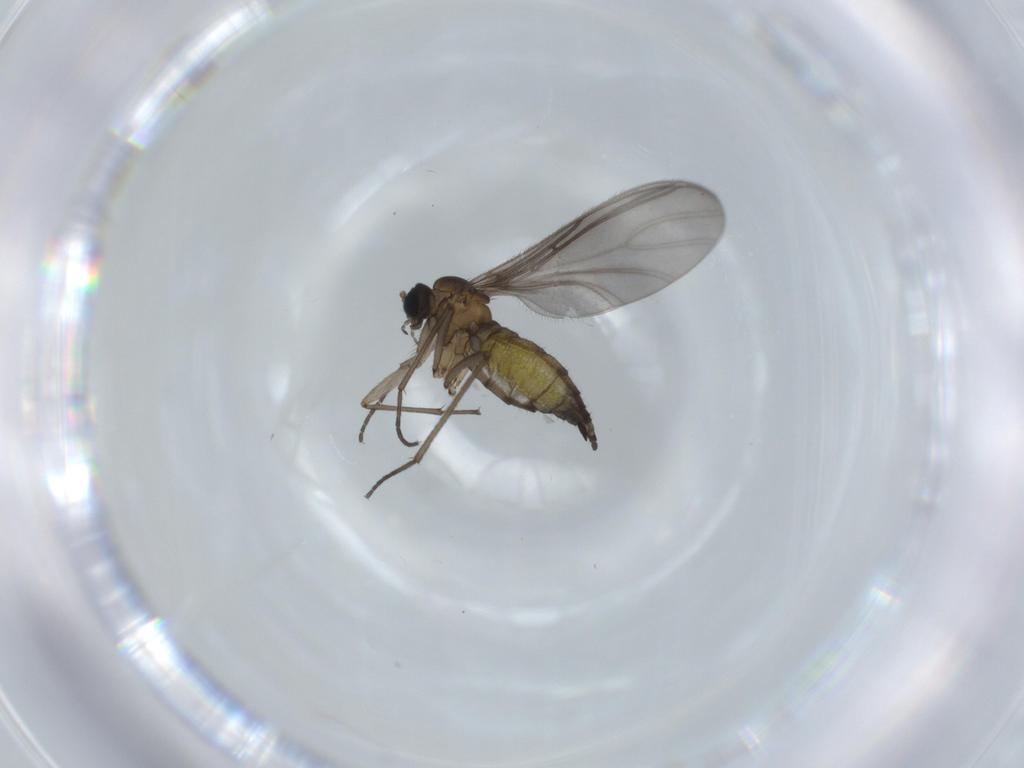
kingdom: Animalia
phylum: Arthropoda
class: Insecta
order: Diptera
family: Sciaridae
